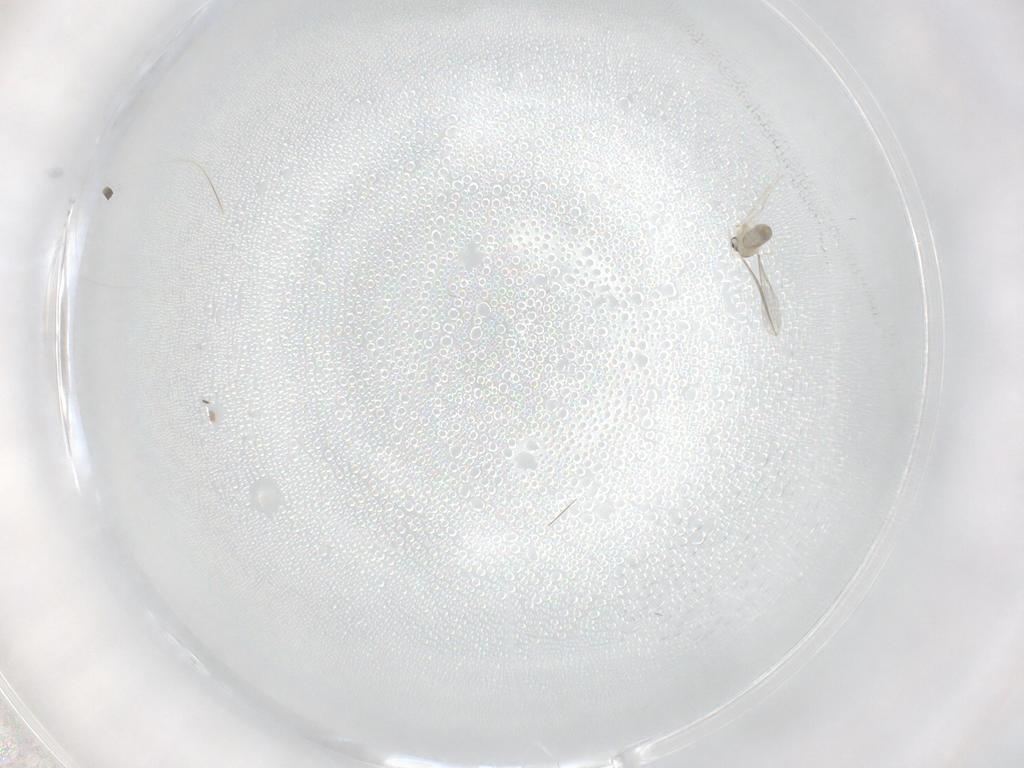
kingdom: Animalia
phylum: Arthropoda
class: Insecta
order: Diptera
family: Cecidomyiidae
